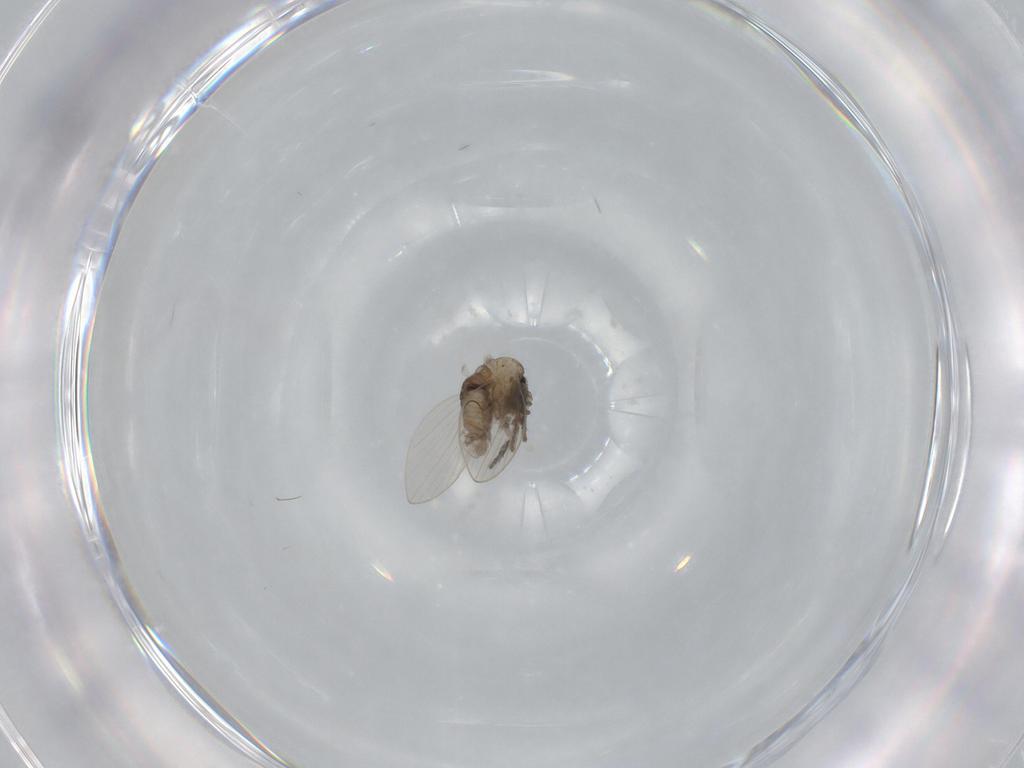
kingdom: Animalia
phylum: Arthropoda
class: Insecta
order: Diptera
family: Psychodidae
